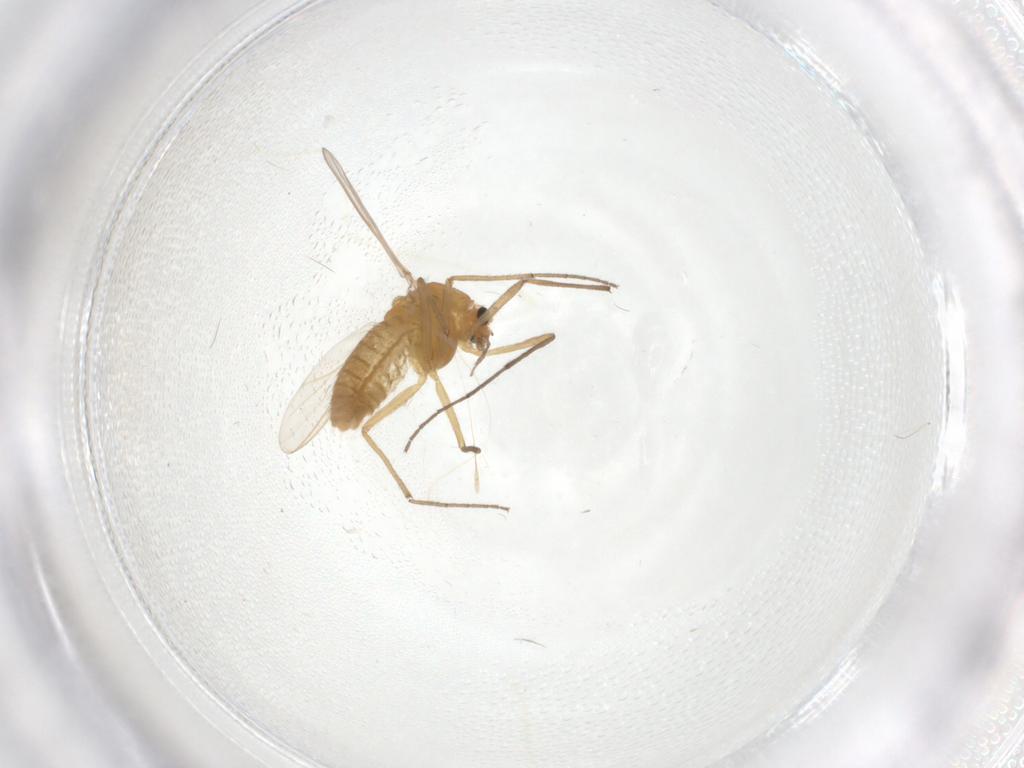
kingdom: Animalia
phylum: Arthropoda
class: Insecta
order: Diptera
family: Chironomidae
